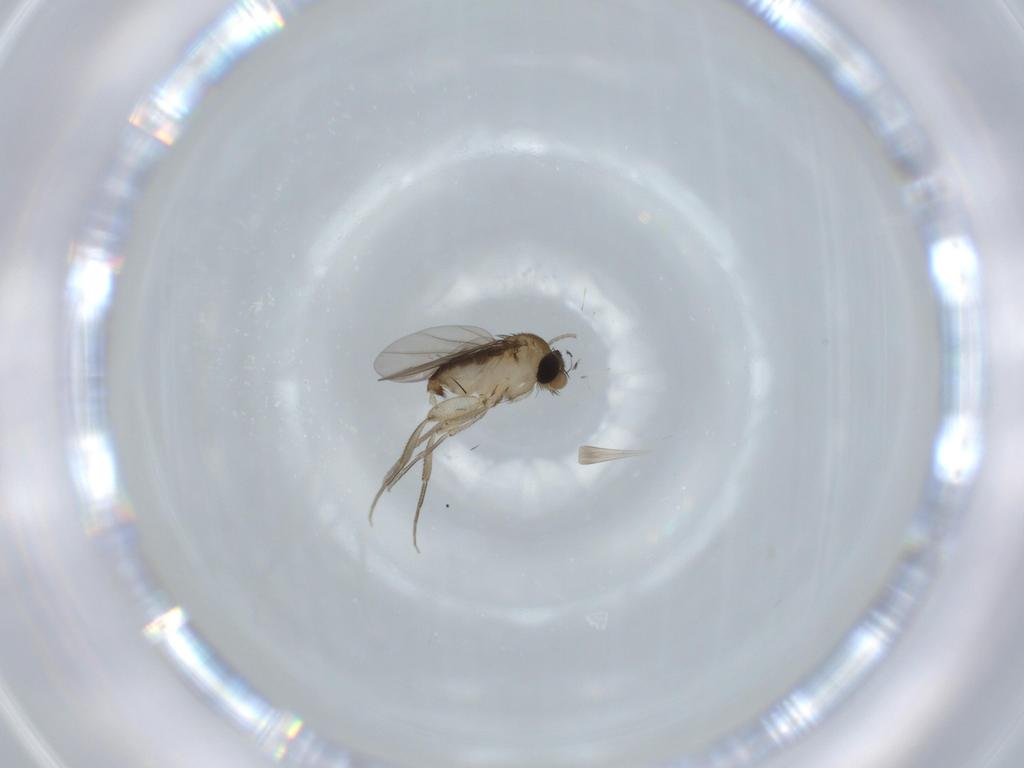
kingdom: Animalia
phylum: Arthropoda
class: Insecta
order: Diptera
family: Phoridae
